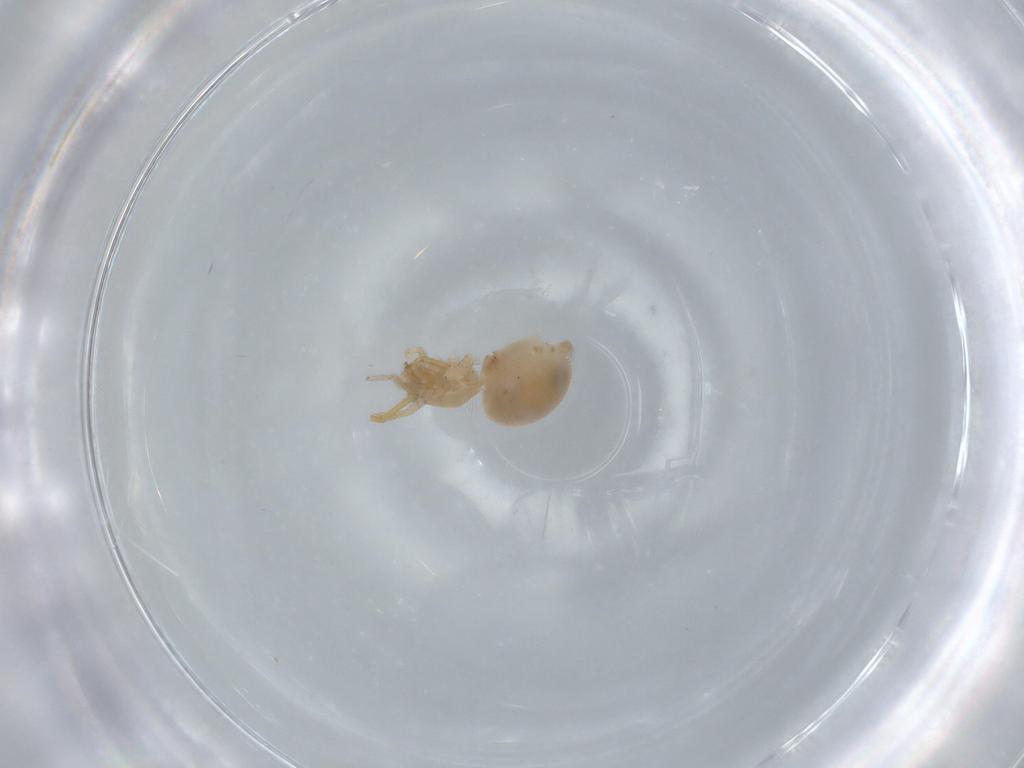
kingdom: Animalia
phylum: Arthropoda
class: Arachnida
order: Araneae
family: Oonopidae
